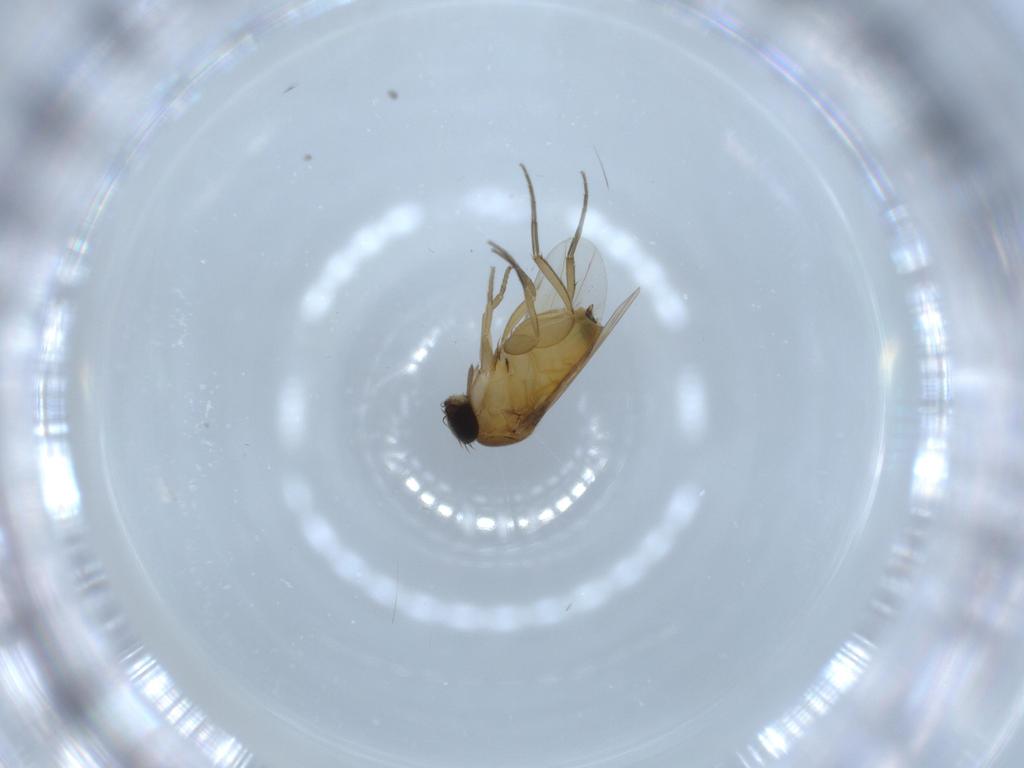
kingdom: Animalia
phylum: Arthropoda
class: Insecta
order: Diptera
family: Phoridae
